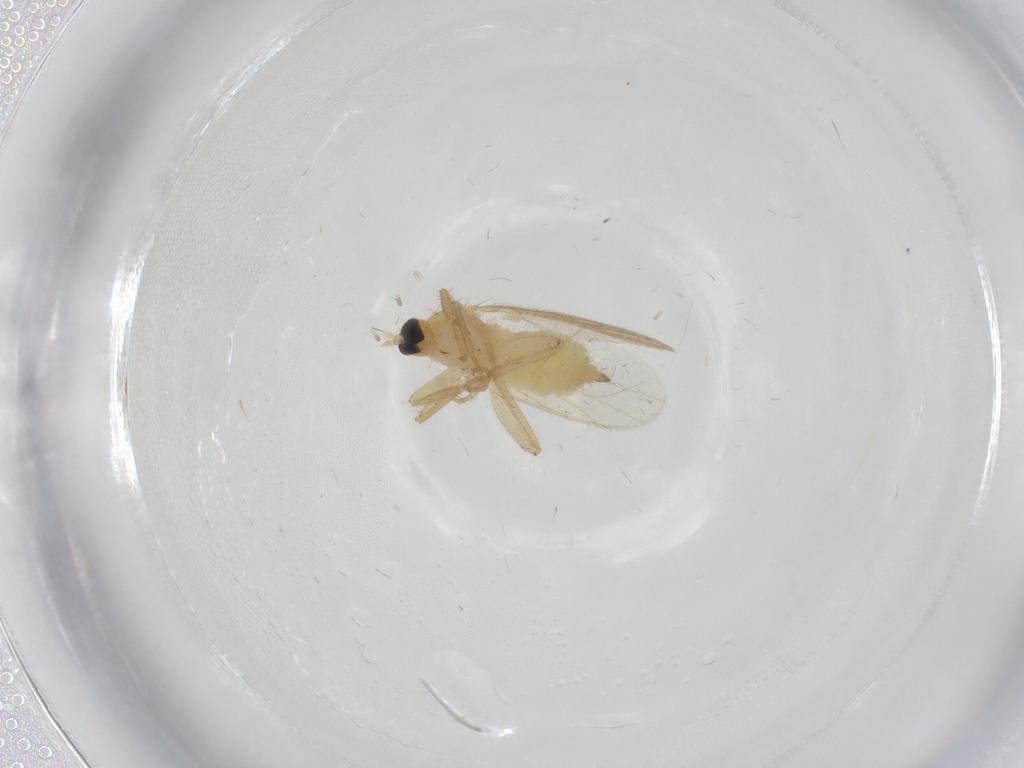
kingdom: Animalia
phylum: Arthropoda
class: Insecta
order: Diptera
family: Hybotidae
